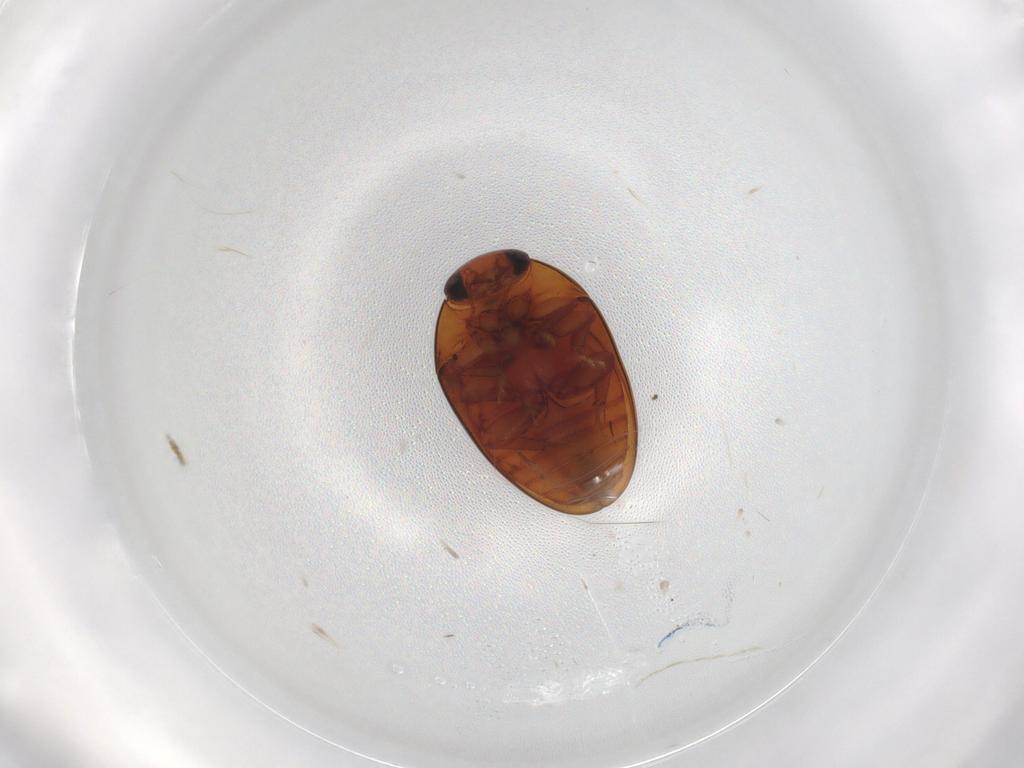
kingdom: Animalia
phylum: Arthropoda
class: Insecta
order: Coleoptera
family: Phalacridae
